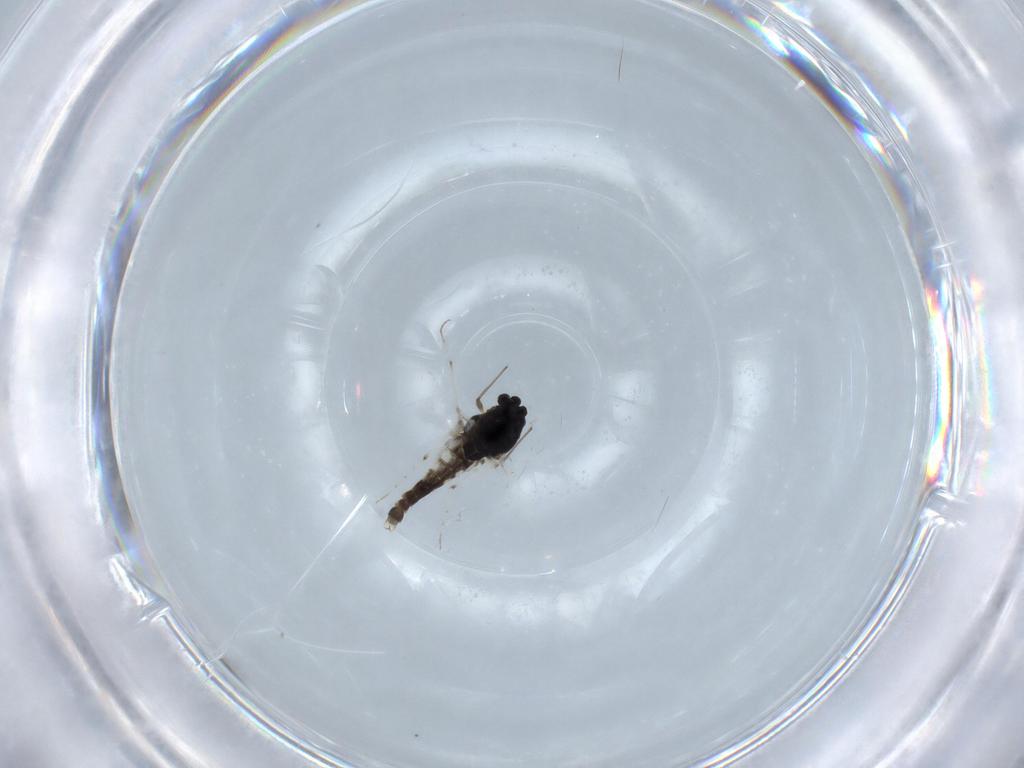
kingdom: Animalia
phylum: Arthropoda
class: Insecta
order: Diptera
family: Chironomidae
